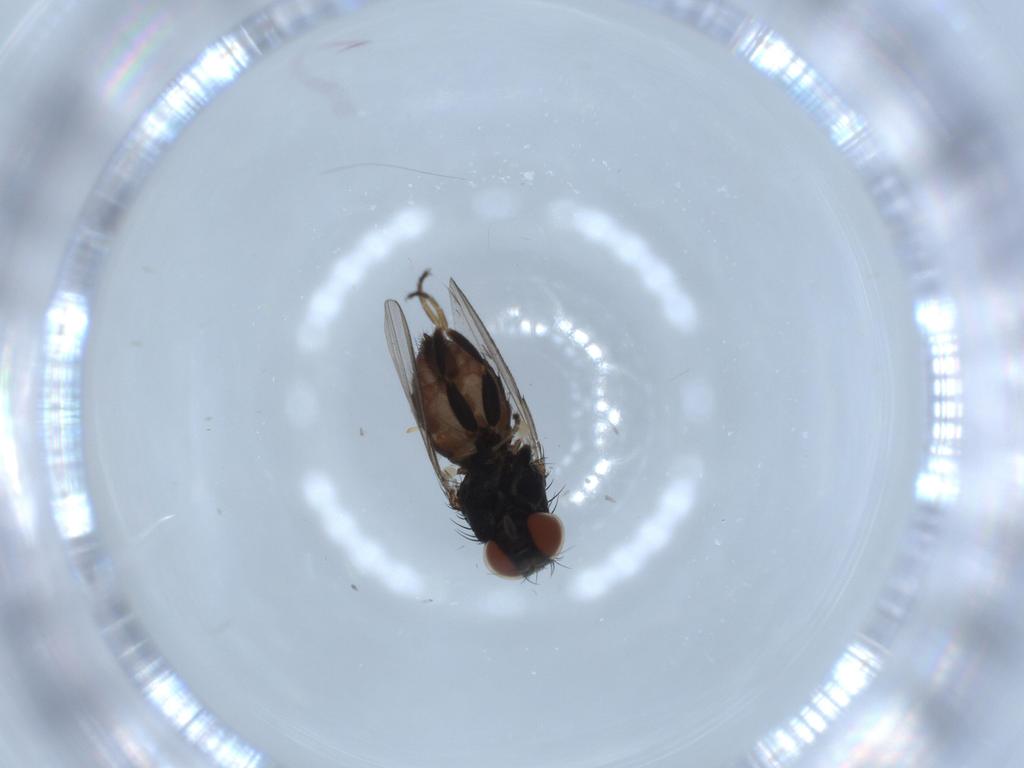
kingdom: Animalia
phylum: Arthropoda
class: Insecta
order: Diptera
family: Milichiidae
